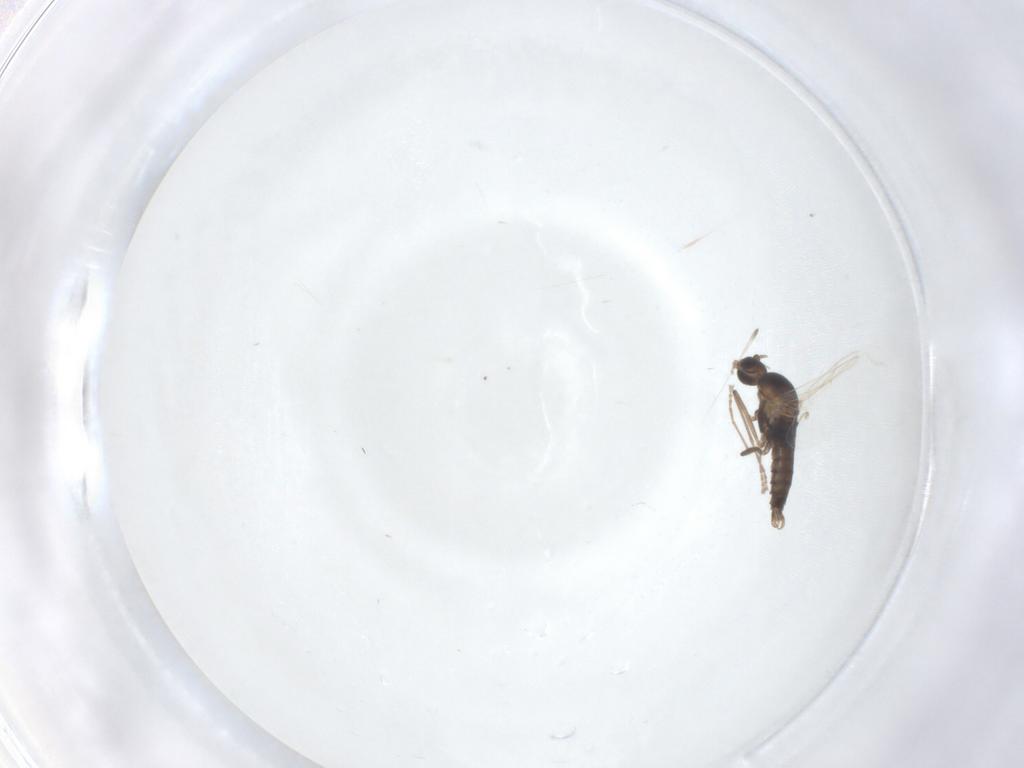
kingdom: Animalia
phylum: Arthropoda
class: Insecta
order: Diptera
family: Cecidomyiidae
